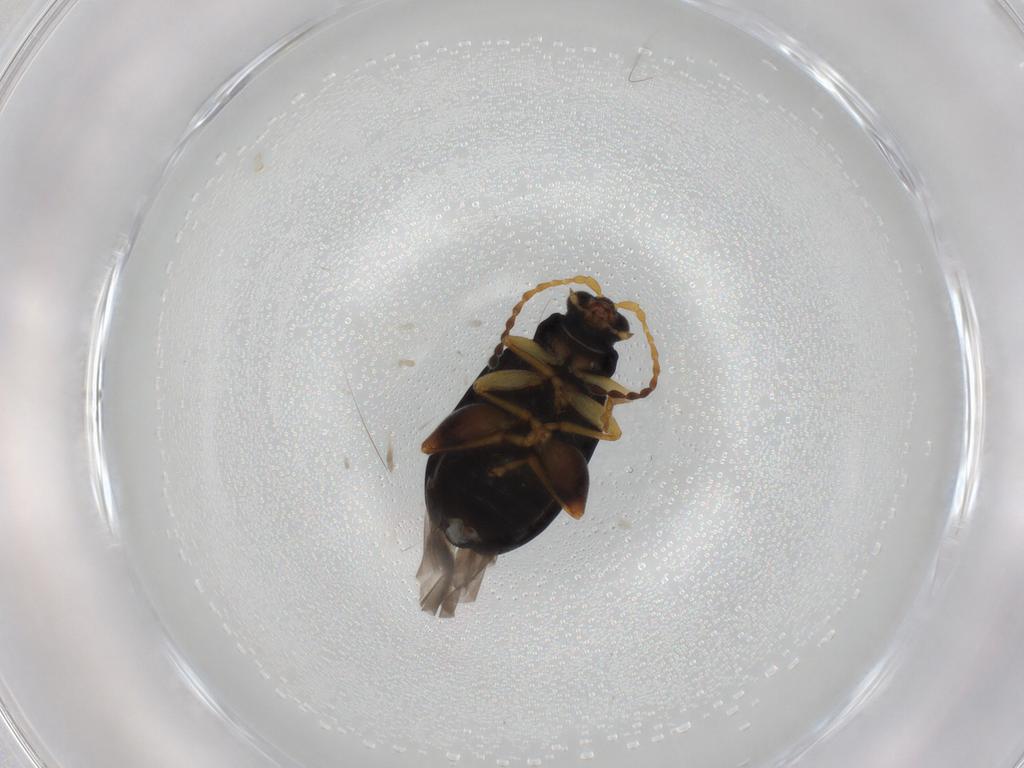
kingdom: Animalia
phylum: Arthropoda
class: Insecta
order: Coleoptera
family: Chrysomelidae
